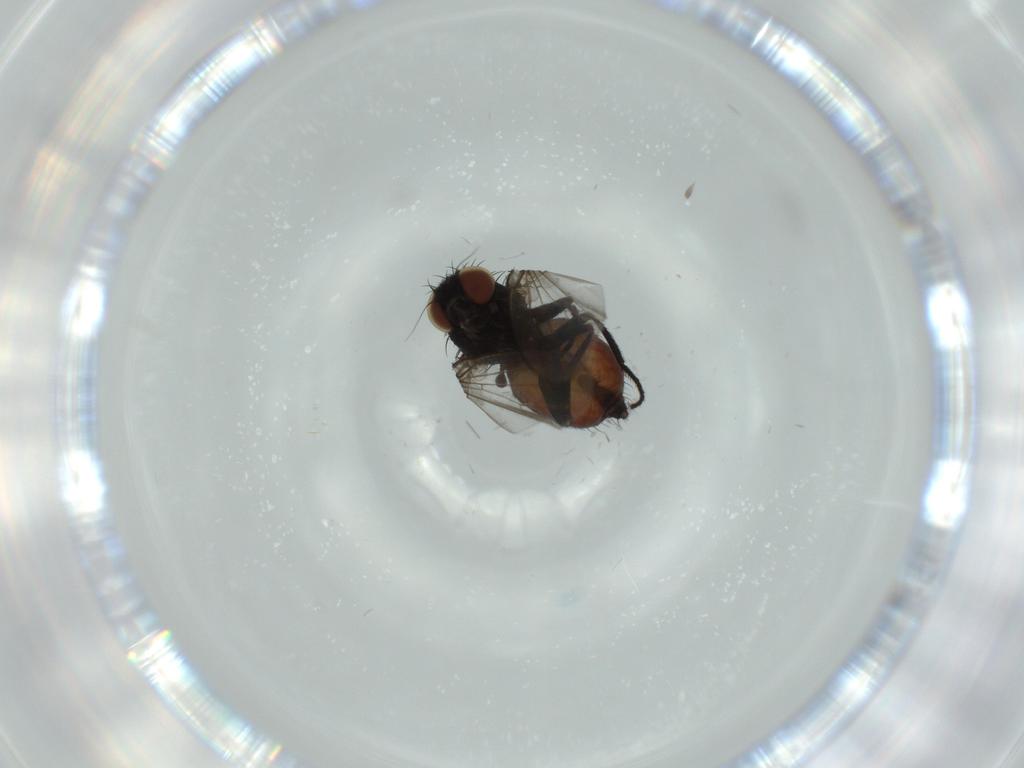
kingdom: Animalia
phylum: Arthropoda
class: Insecta
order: Diptera
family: Milichiidae
